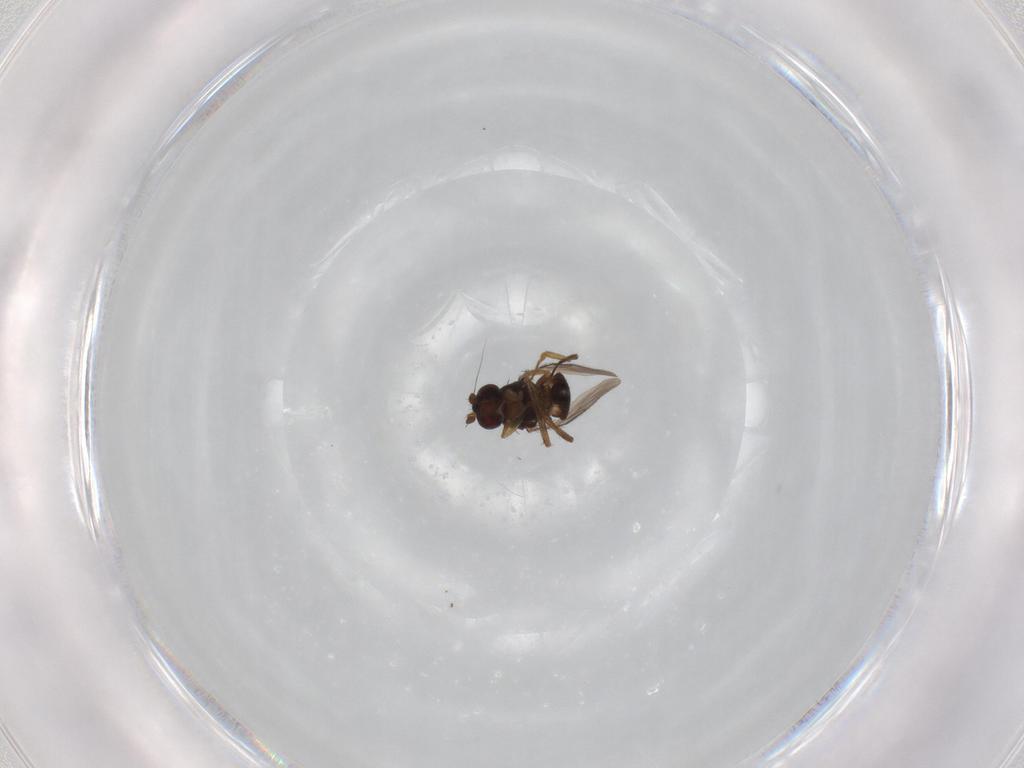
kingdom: Animalia
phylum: Arthropoda
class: Insecta
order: Diptera
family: Sphaeroceridae
